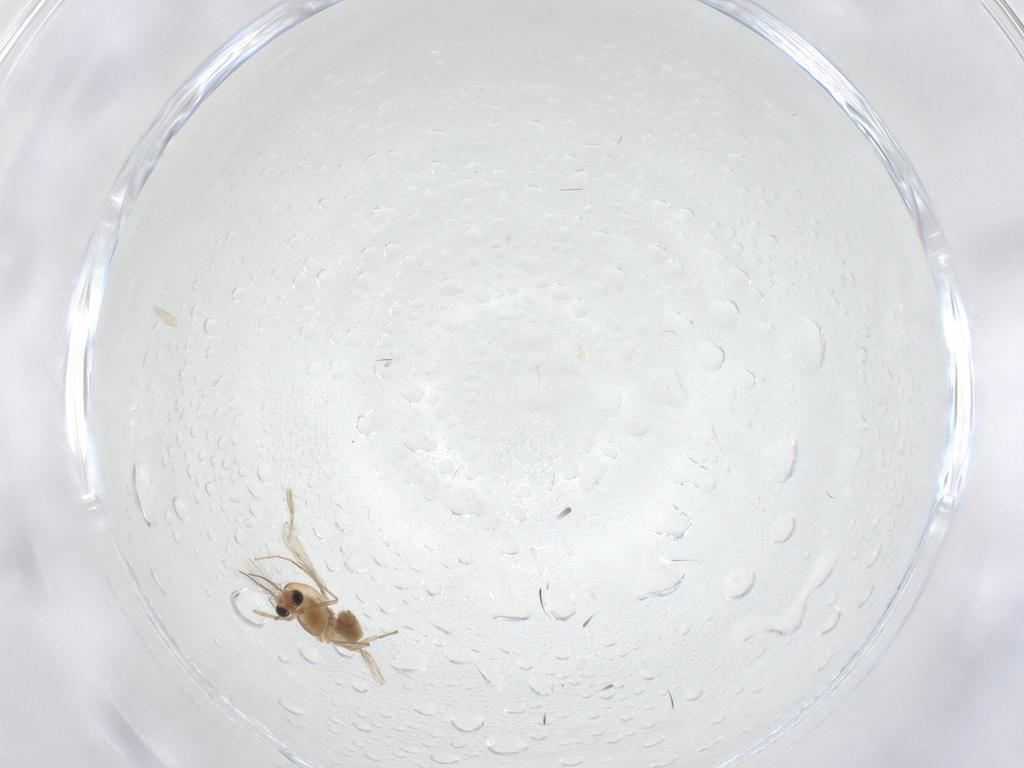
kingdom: Animalia
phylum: Arthropoda
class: Insecta
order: Diptera
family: Chironomidae
